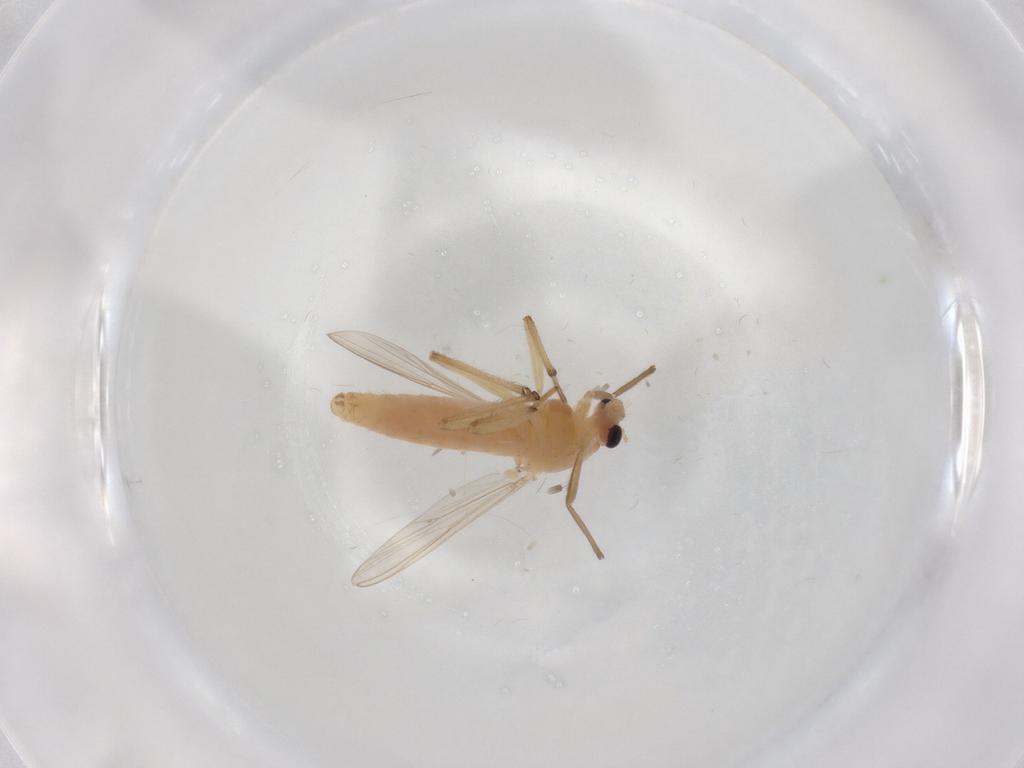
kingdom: Animalia
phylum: Arthropoda
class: Insecta
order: Diptera
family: Chironomidae
